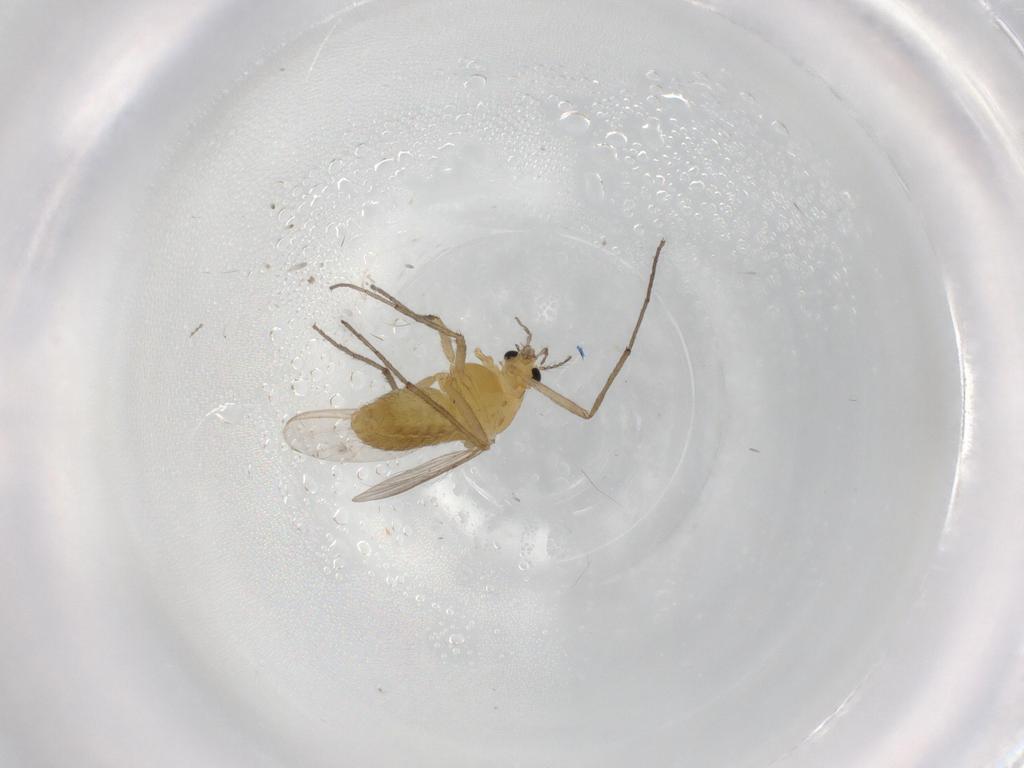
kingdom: Animalia
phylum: Arthropoda
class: Insecta
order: Diptera
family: Chironomidae
